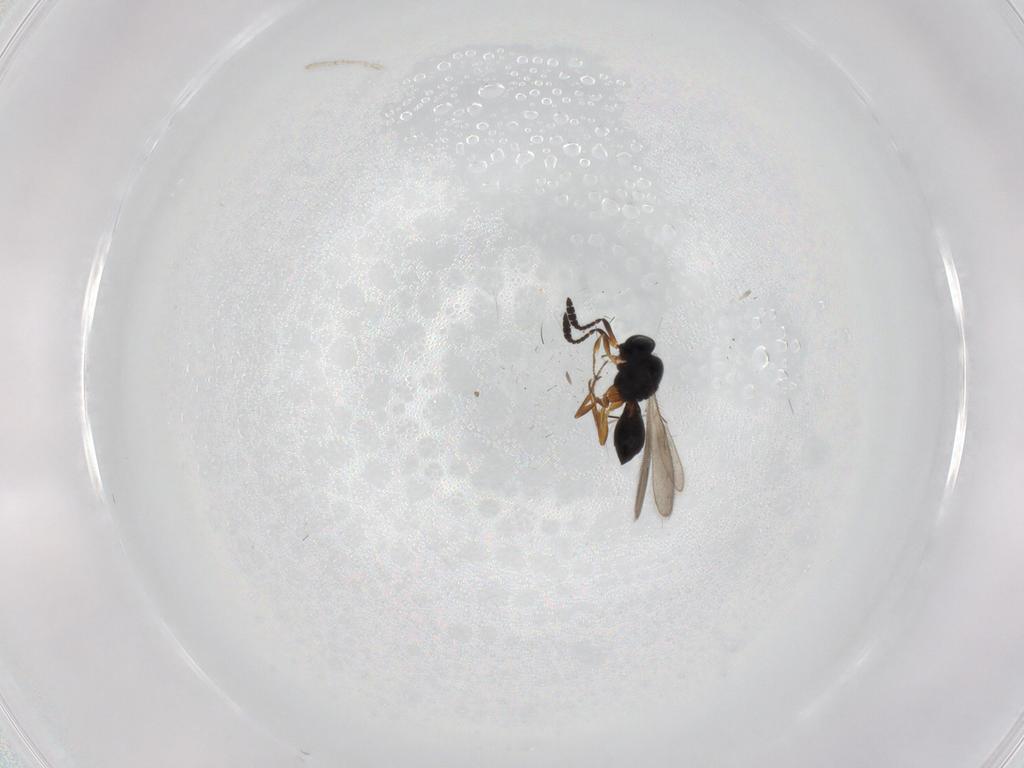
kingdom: Animalia
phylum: Arthropoda
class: Insecta
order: Hymenoptera
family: Scelionidae
